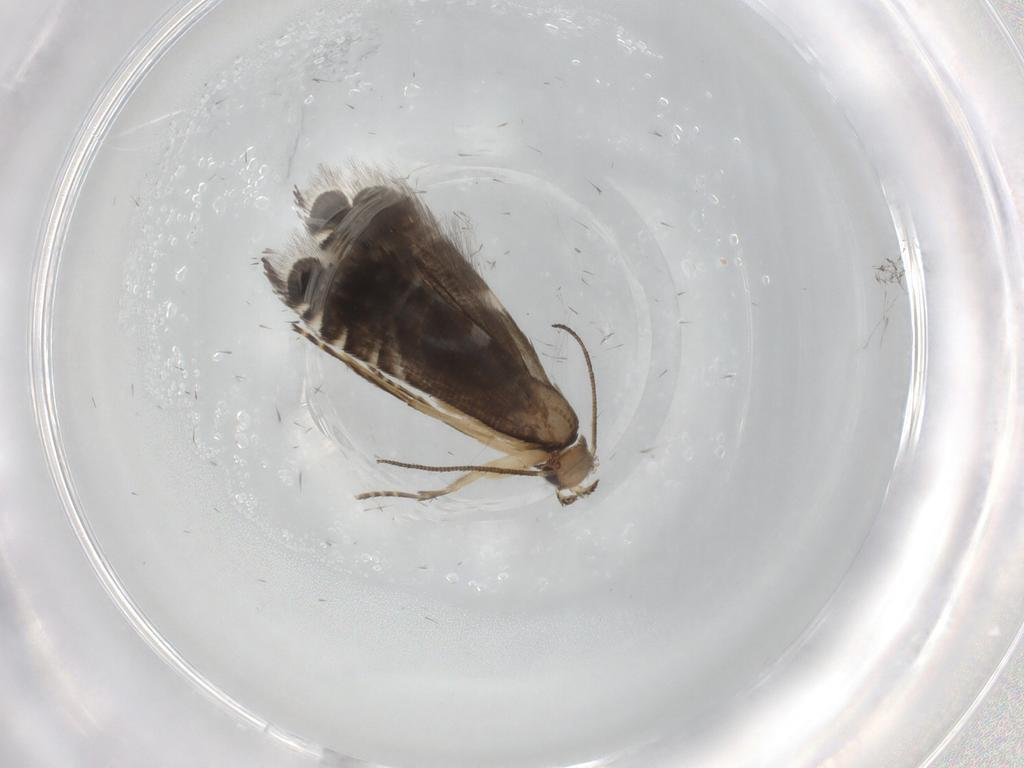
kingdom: Animalia
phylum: Arthropoda
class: Insecta
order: Lepidoptera
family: Glyphipterigidae
